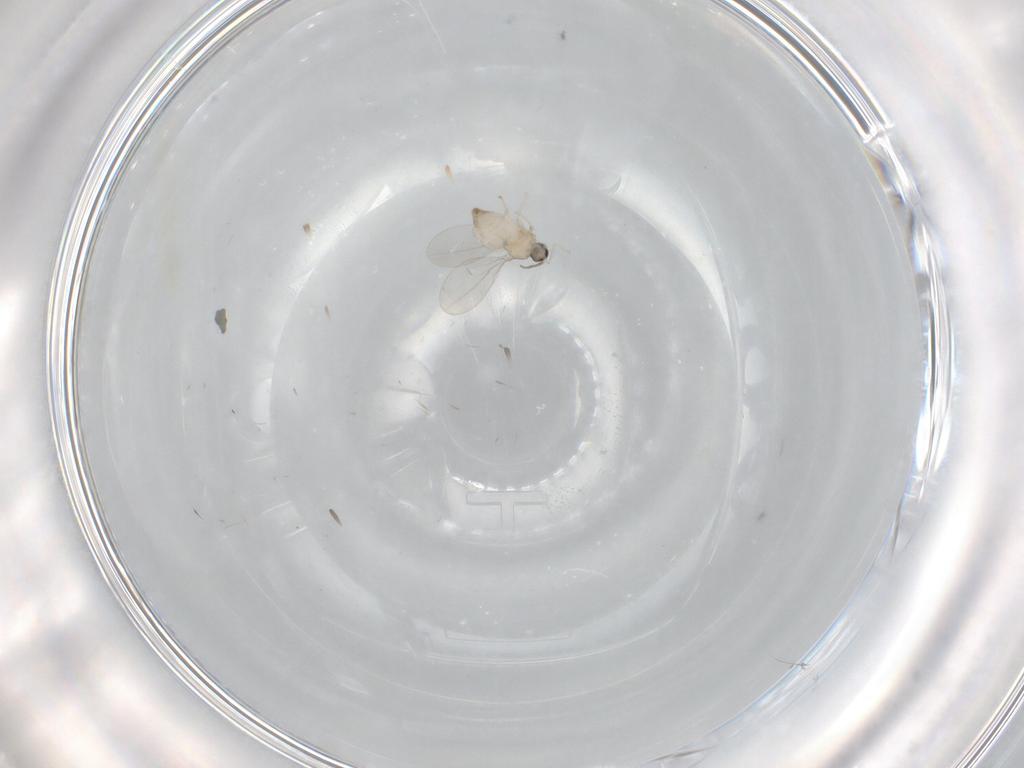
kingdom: Animalia
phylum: Arthropoda
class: Insecta
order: Diptera
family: Cecidomyiidae
